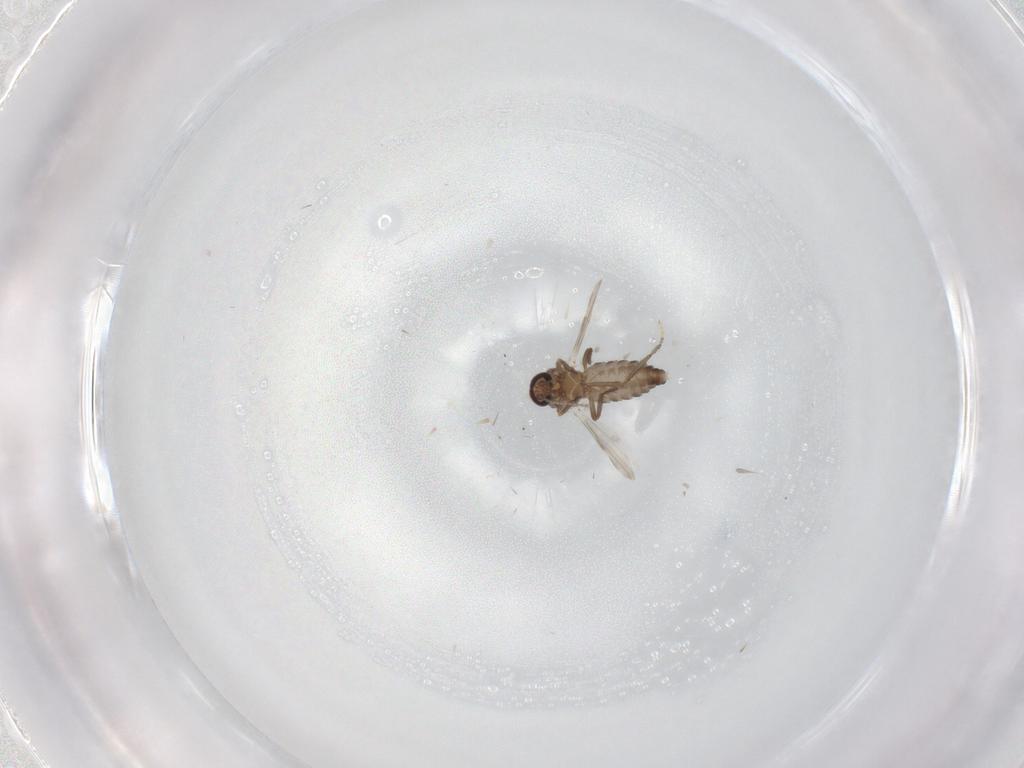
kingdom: Animalia
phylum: Arthropoda
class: Insecta
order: Diptera
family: Ceratopogonidae
